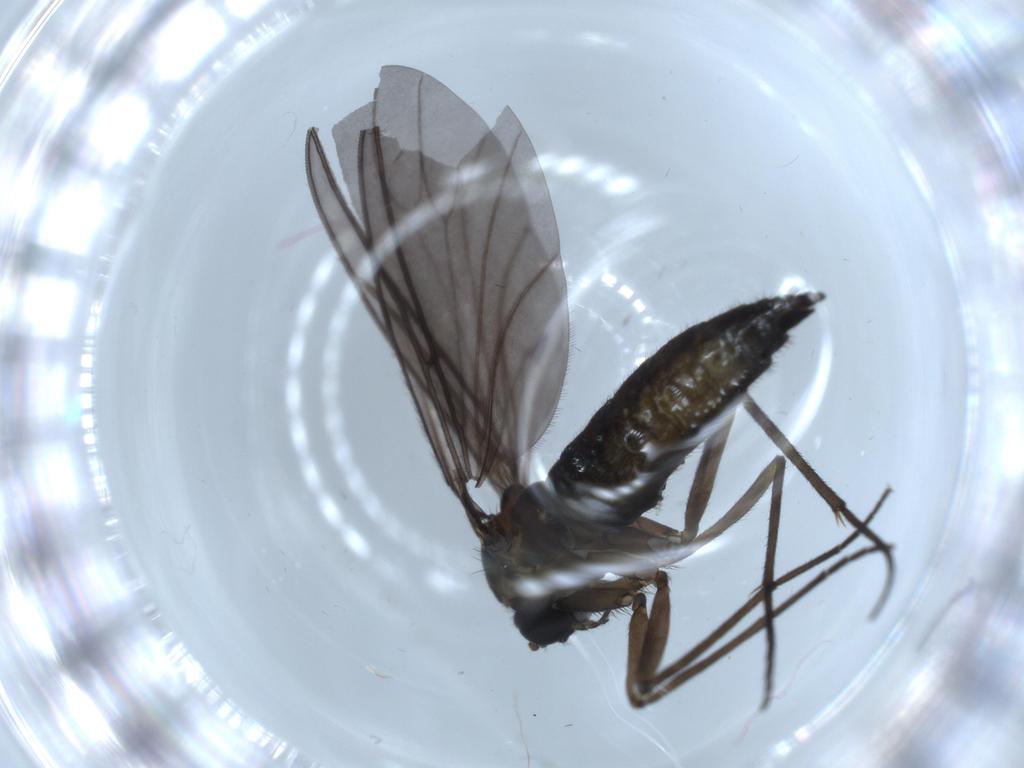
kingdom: Animalia
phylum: Arthropoda
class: Insecta
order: Diptera
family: Sciaridae
